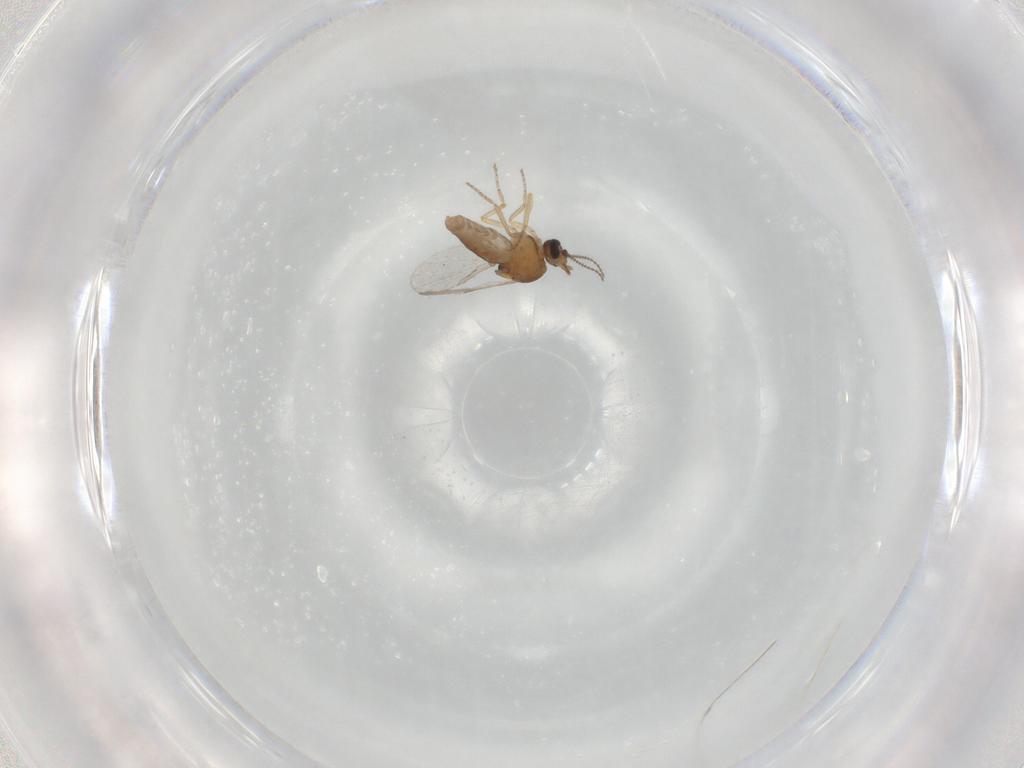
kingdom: Animalia
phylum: Arthropoda
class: Insecta
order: Diptera
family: Ceratopogonidae
